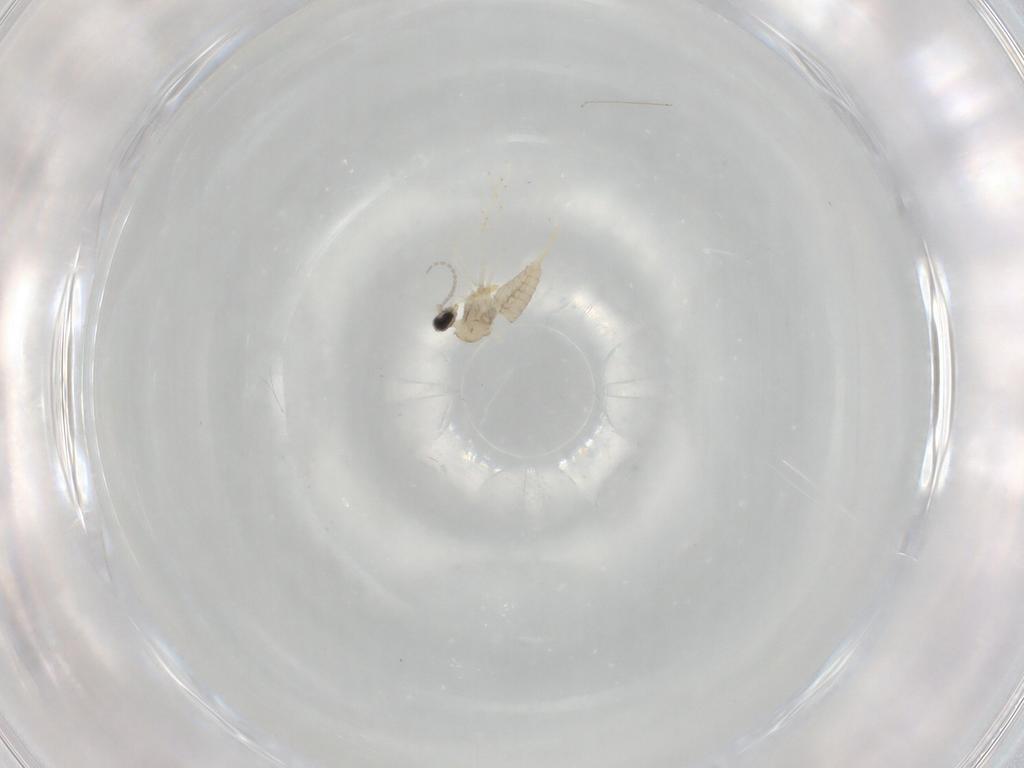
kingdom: Animalia
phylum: Arthropoda
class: Insecta
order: Diptera
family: Cecidomyiidae
